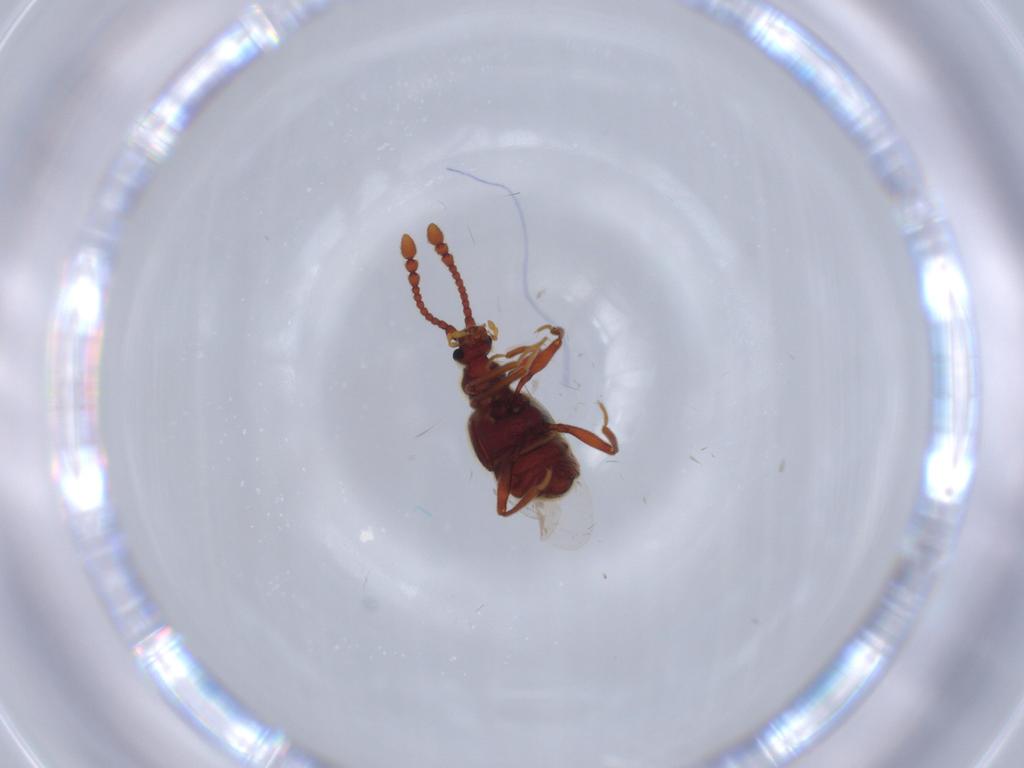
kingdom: Animalia
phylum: Arthropoda
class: Insecta
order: Coleoptera
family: Staphylinidae
